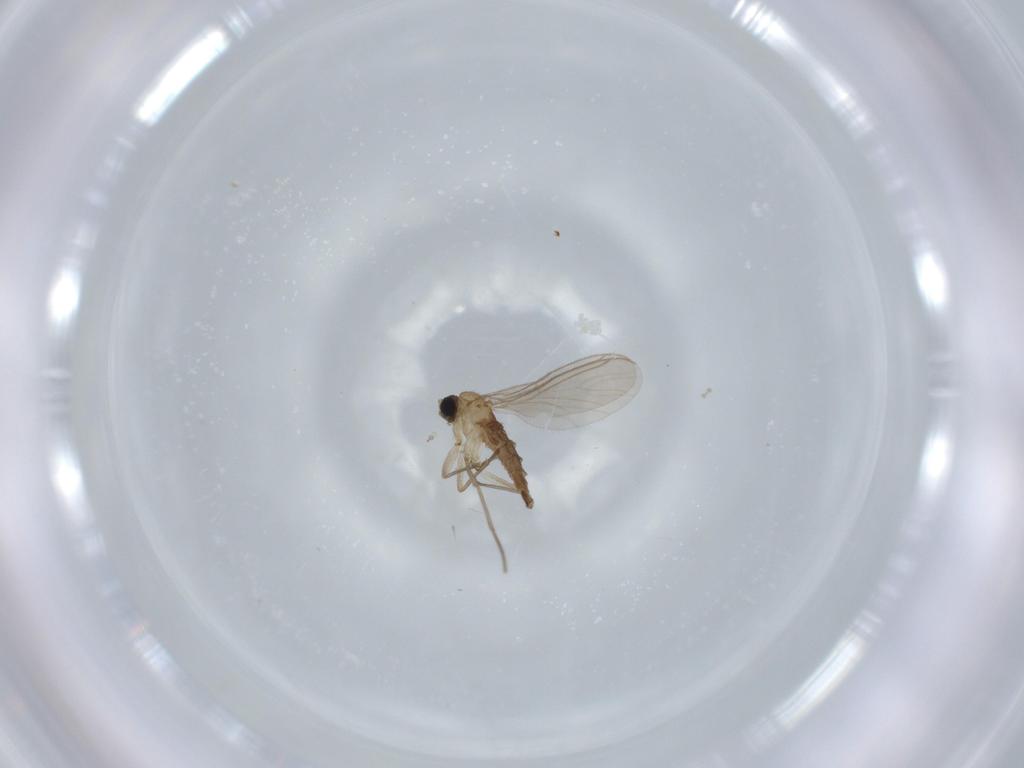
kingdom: Animalia
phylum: Arthropoda
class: Insecta
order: Diptera
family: Sciaridae
